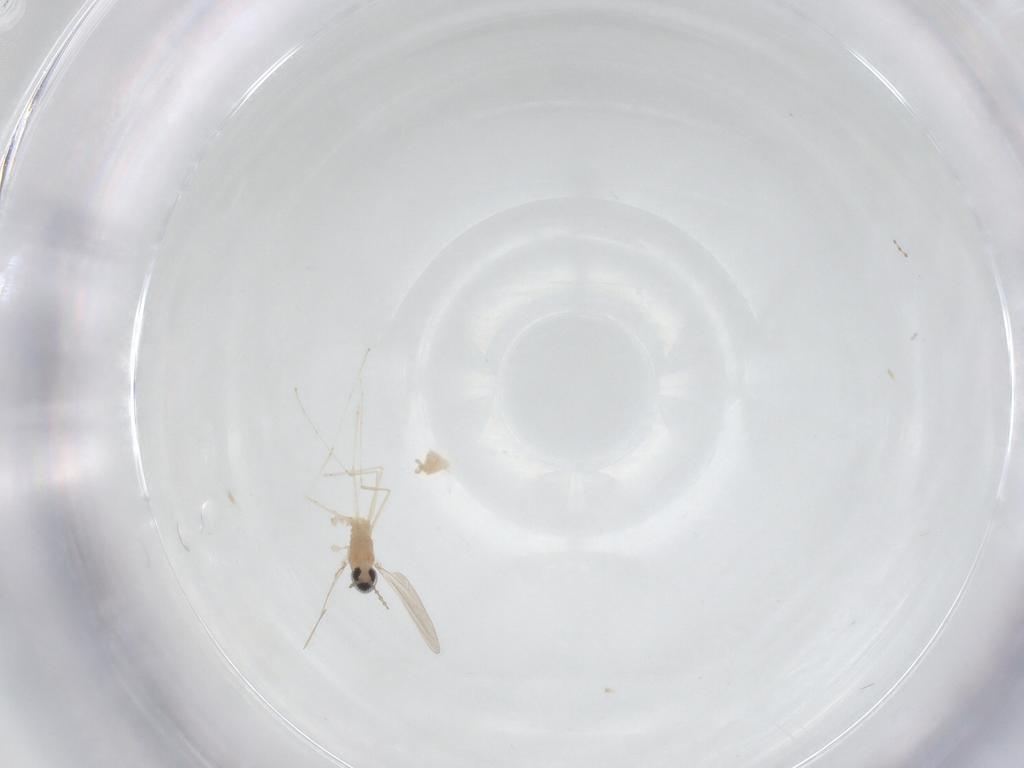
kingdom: Animalia
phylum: Arthropoda
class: Insecta
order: Diptera
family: Cecidomyiidae
